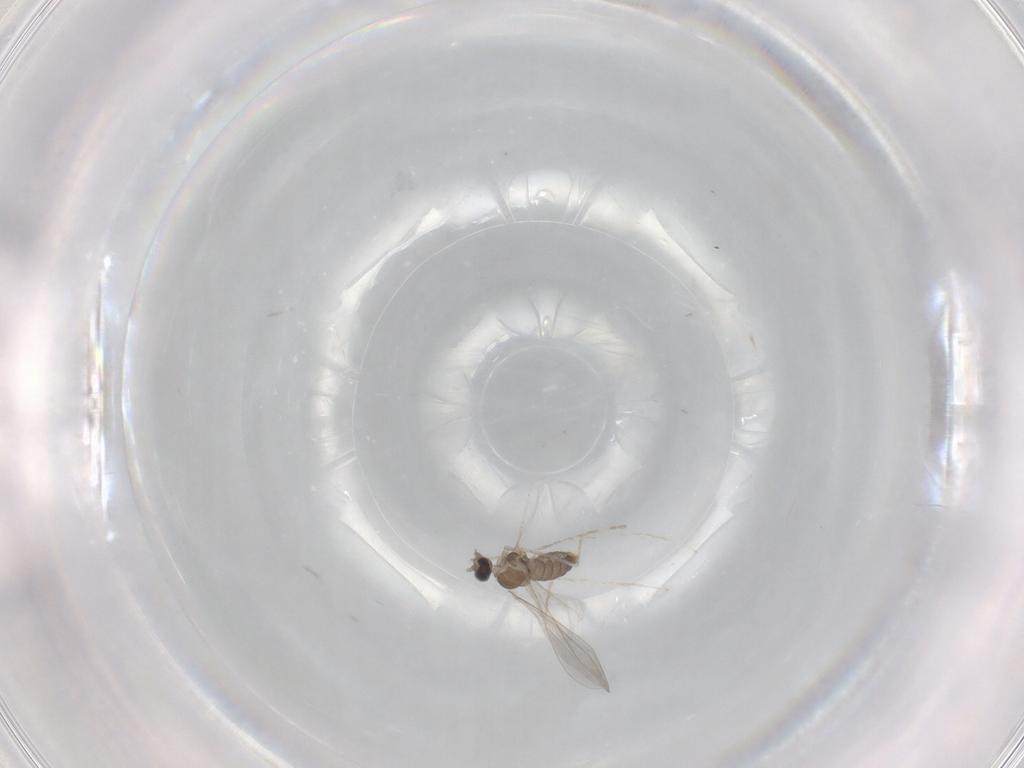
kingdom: Animalia
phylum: Arthropoda
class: Insecta
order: Diptera
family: Cecidomyiidae
